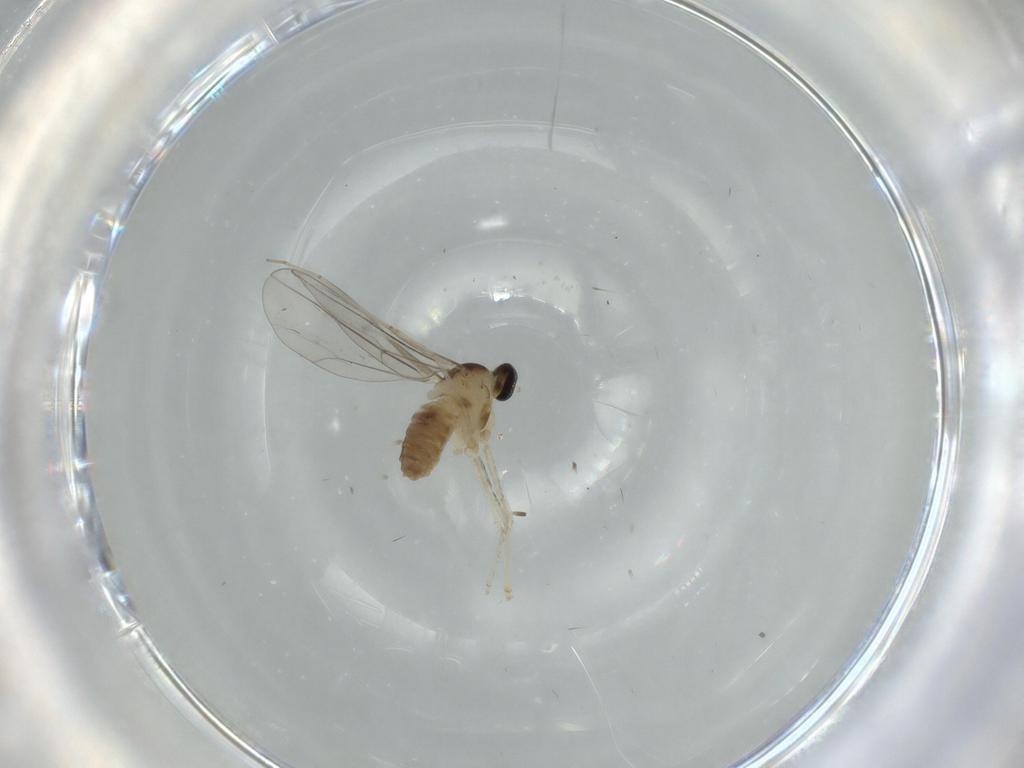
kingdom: Animalia
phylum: Arthropoda
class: Insecta
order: Diptera
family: Cecidomyiidae
